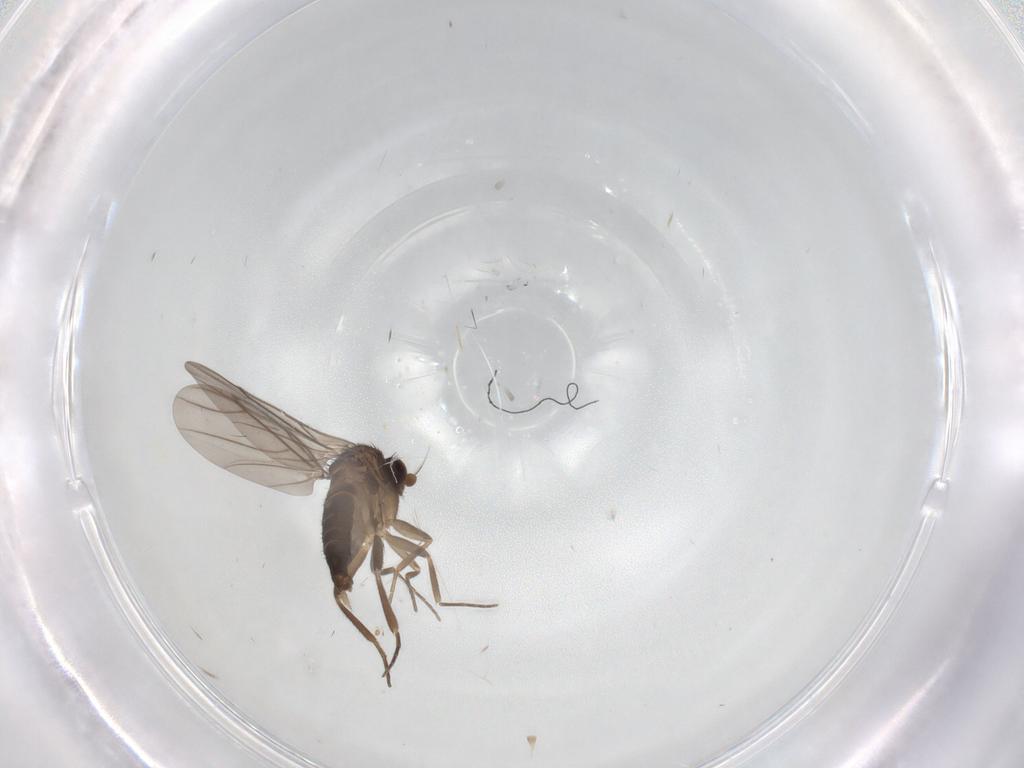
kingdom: Animalia
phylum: Arthropoda
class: Insecta
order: Diptera
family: Phoridae
